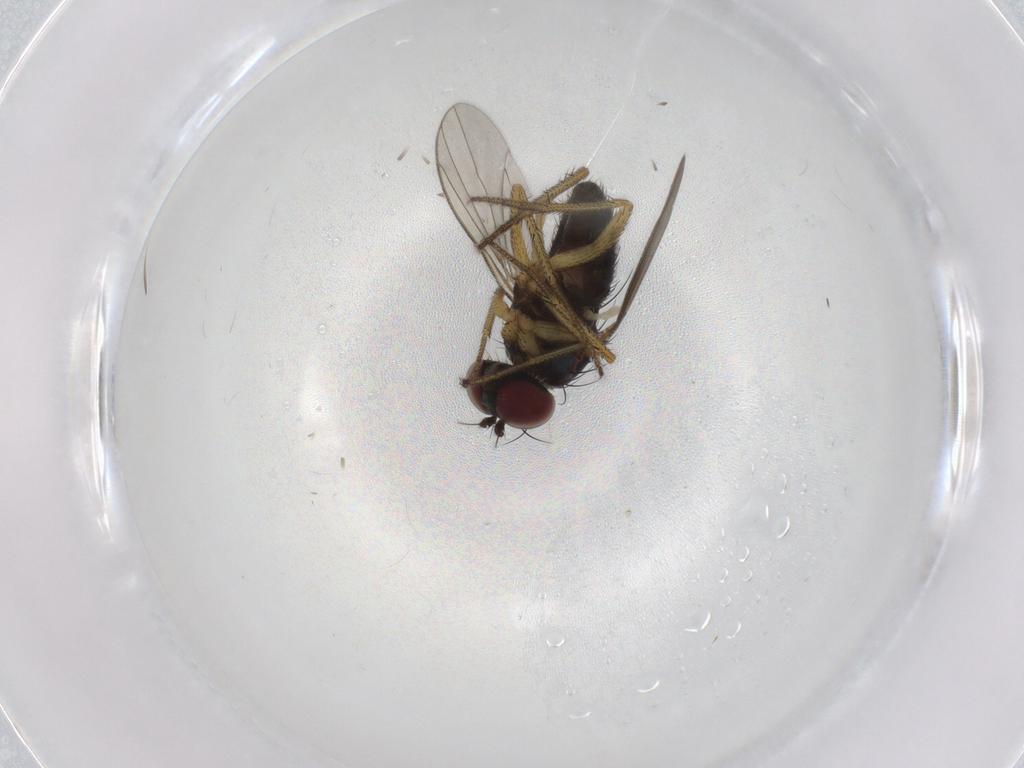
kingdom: Animalia
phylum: Arthropoda
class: Insecta
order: Diptera
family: Dolichopodidae
